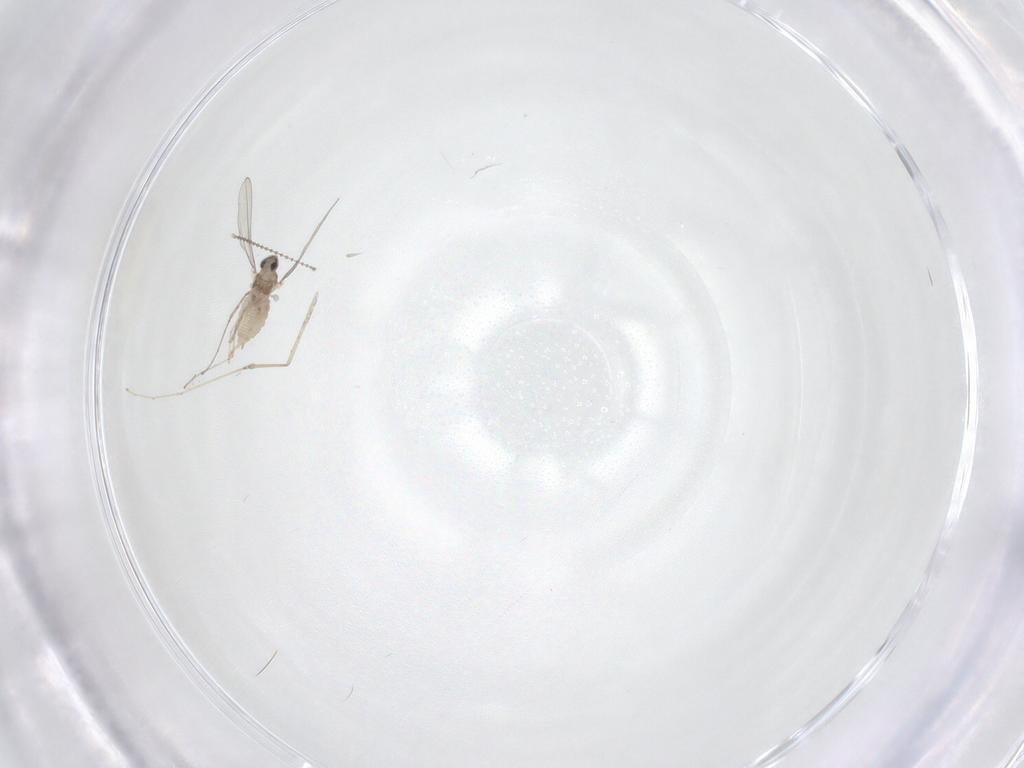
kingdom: Animalia
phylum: Arthropoda
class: Insecta
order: Diptera
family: Cecidomyiidae
